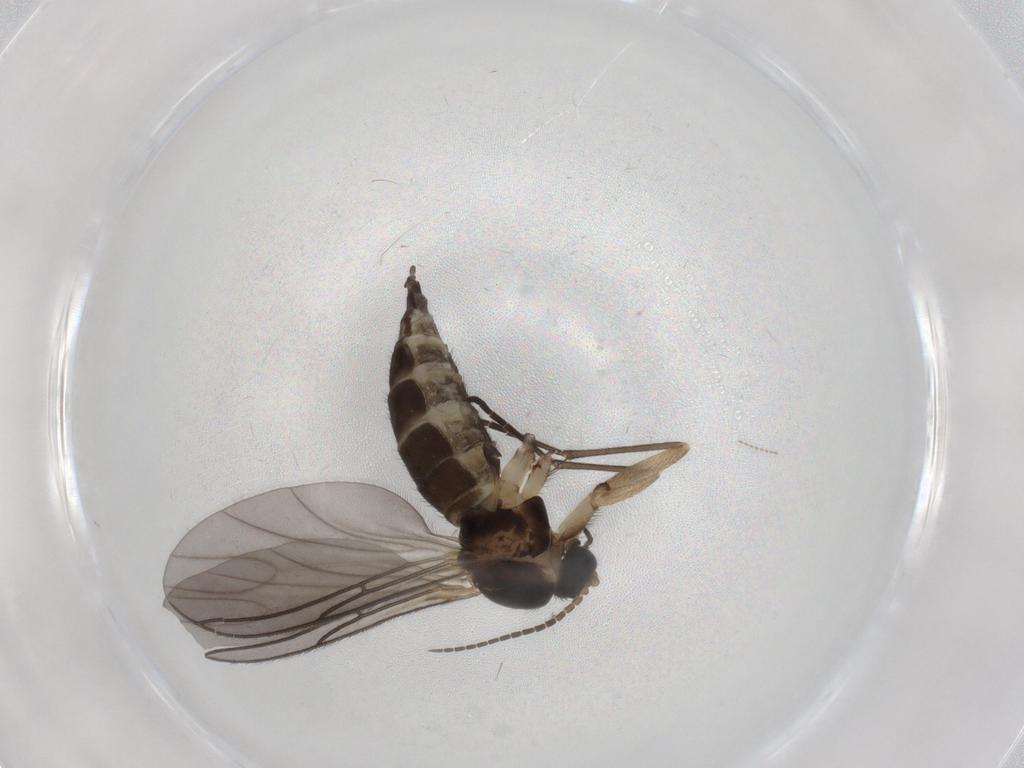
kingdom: Animalia
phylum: Arthropoda
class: Insecta
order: Diptera
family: Sciaridae
